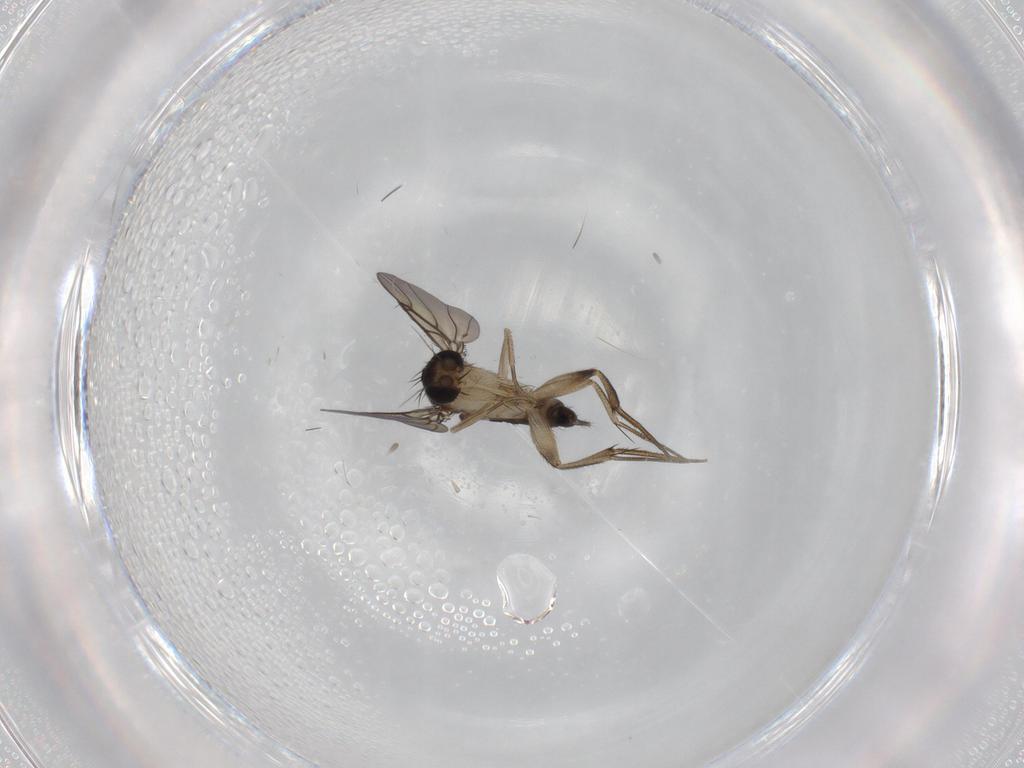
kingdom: Animalia
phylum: Arthropoda
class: Insecta
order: Diptera
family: Phoridae
